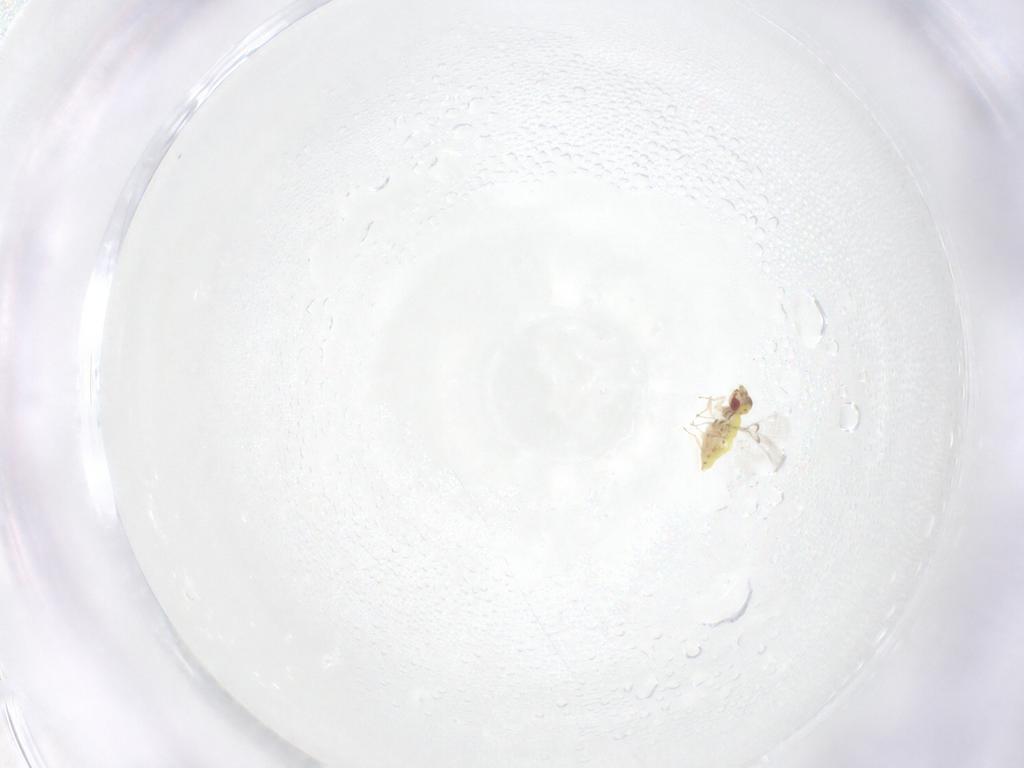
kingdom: Animalia
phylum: Arthropoda
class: Insecta
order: Hymenoptera
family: Trichogrammatidae
